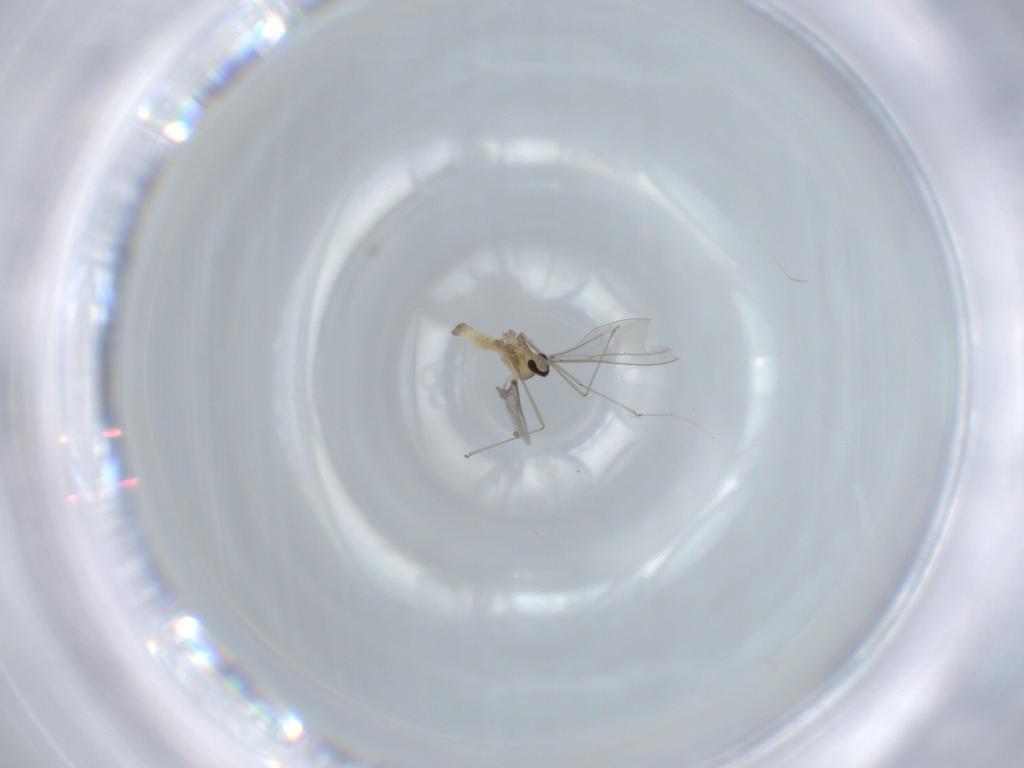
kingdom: Animalia
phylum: Arthropoda
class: Insecta
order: Diptera
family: Cecidomyiidae
